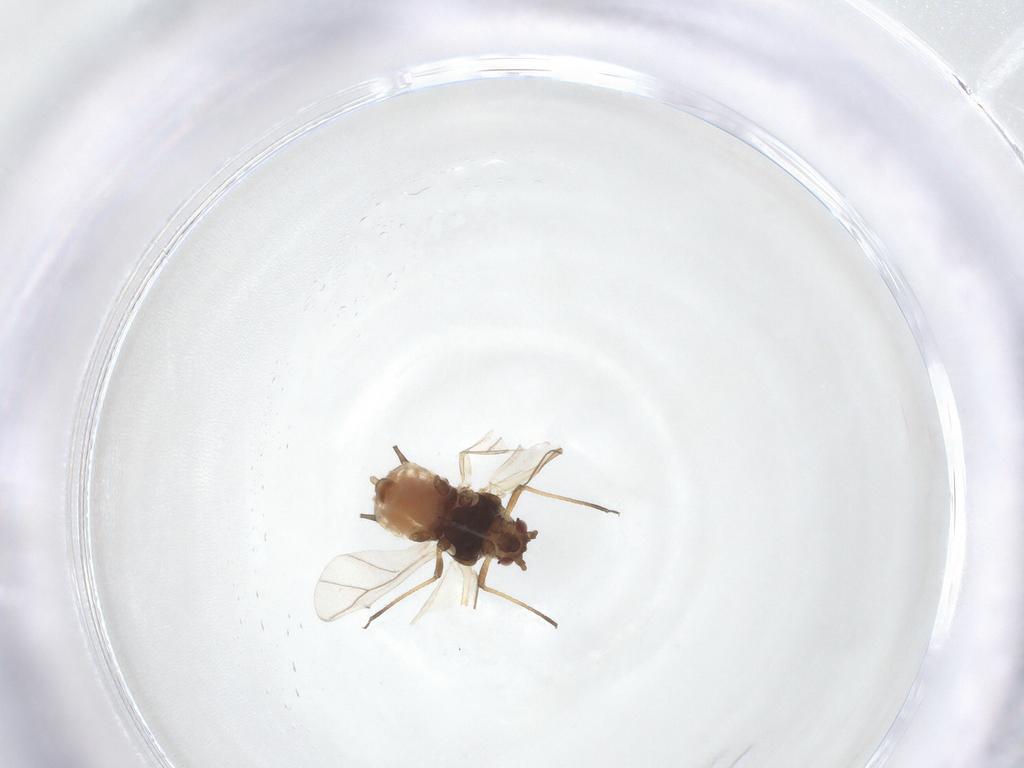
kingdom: Animalia
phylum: Arthropoda
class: Insecta
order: Hemiptera
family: Aphididae
